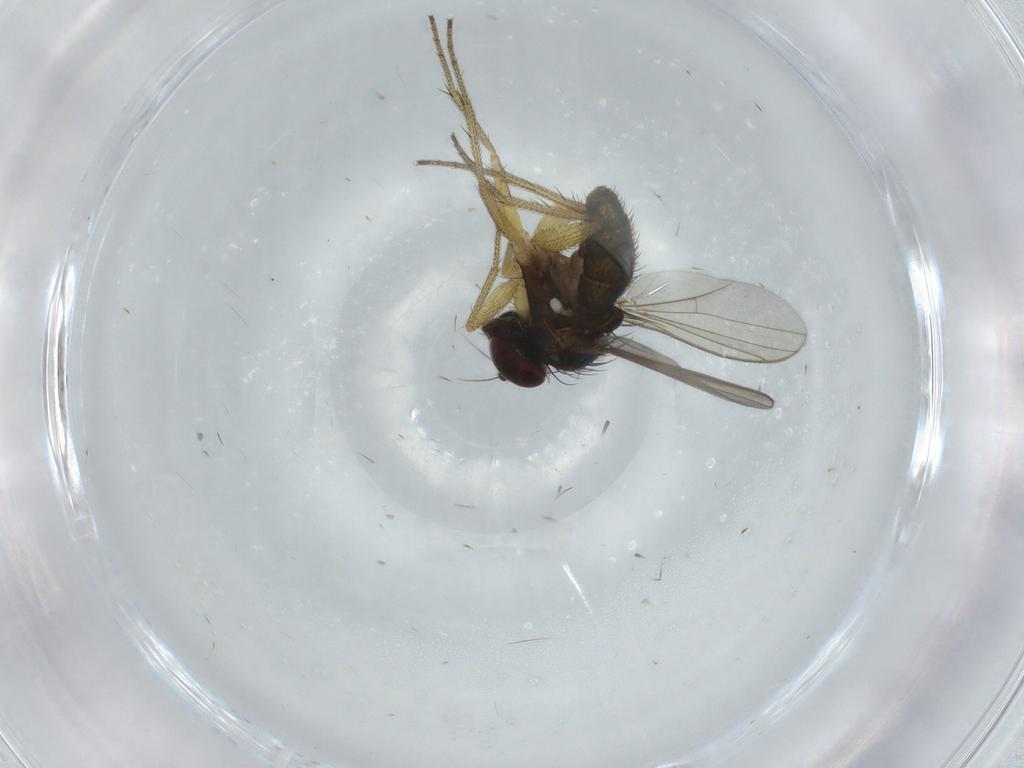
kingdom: Animalia
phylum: Arthropoda
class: Insecta
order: Diptera
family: Dolichopodidae
